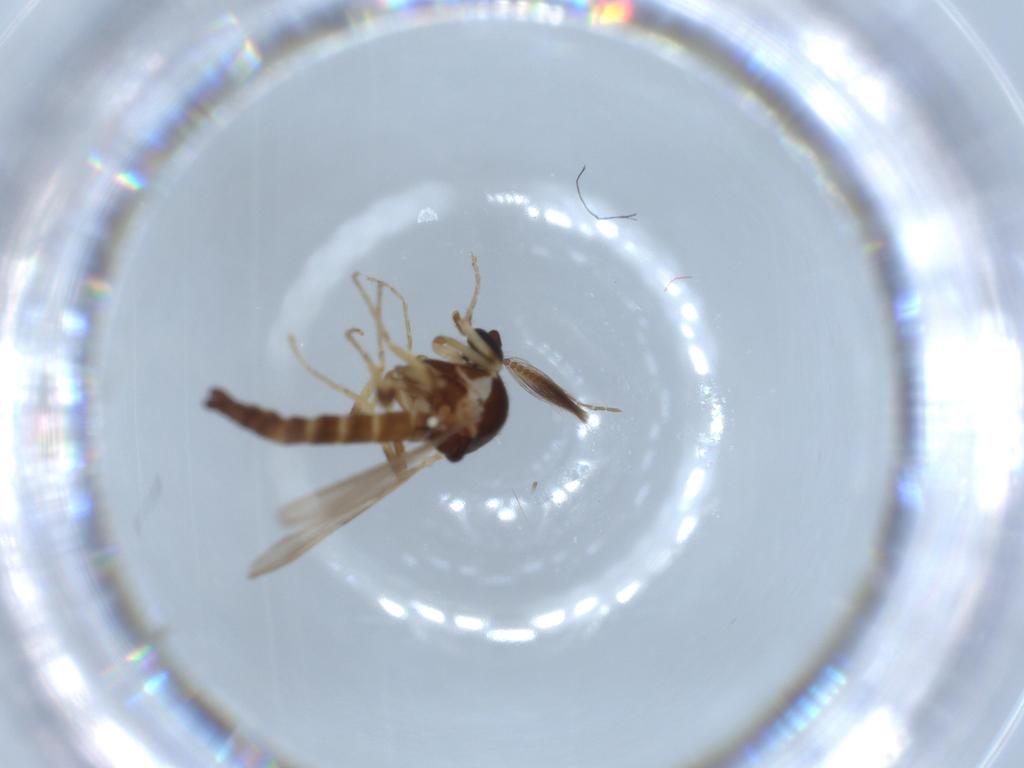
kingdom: Animalia
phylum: Arthropoda
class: Insecta
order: Diptera
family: Ceratopogonidae
